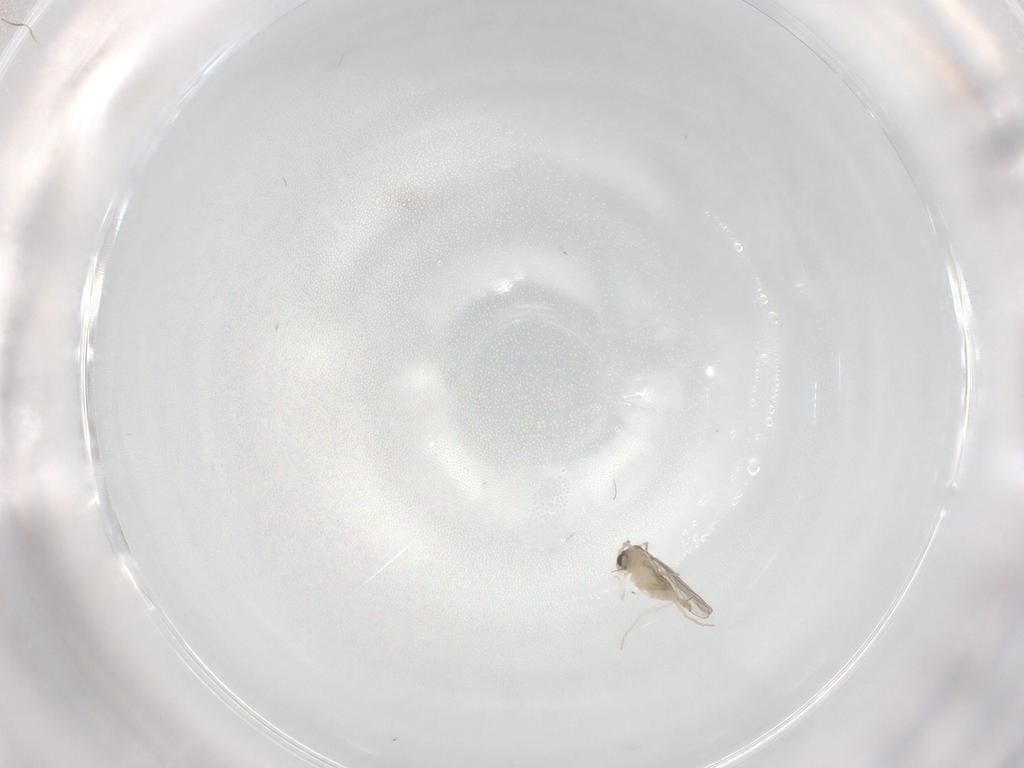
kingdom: Animalia
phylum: Arthropoda
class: Insecta
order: Diptera
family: Cecidomyiidae
